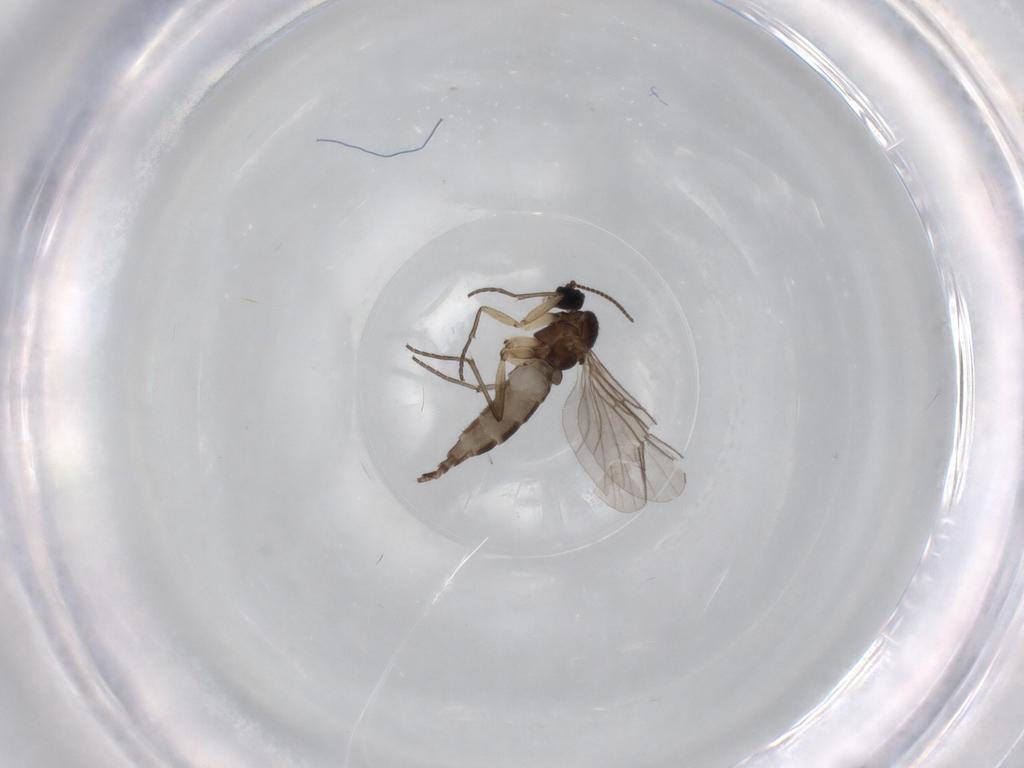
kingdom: Animalia
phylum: Arthropoda
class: Insecta
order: Diptera
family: Sciaridae
